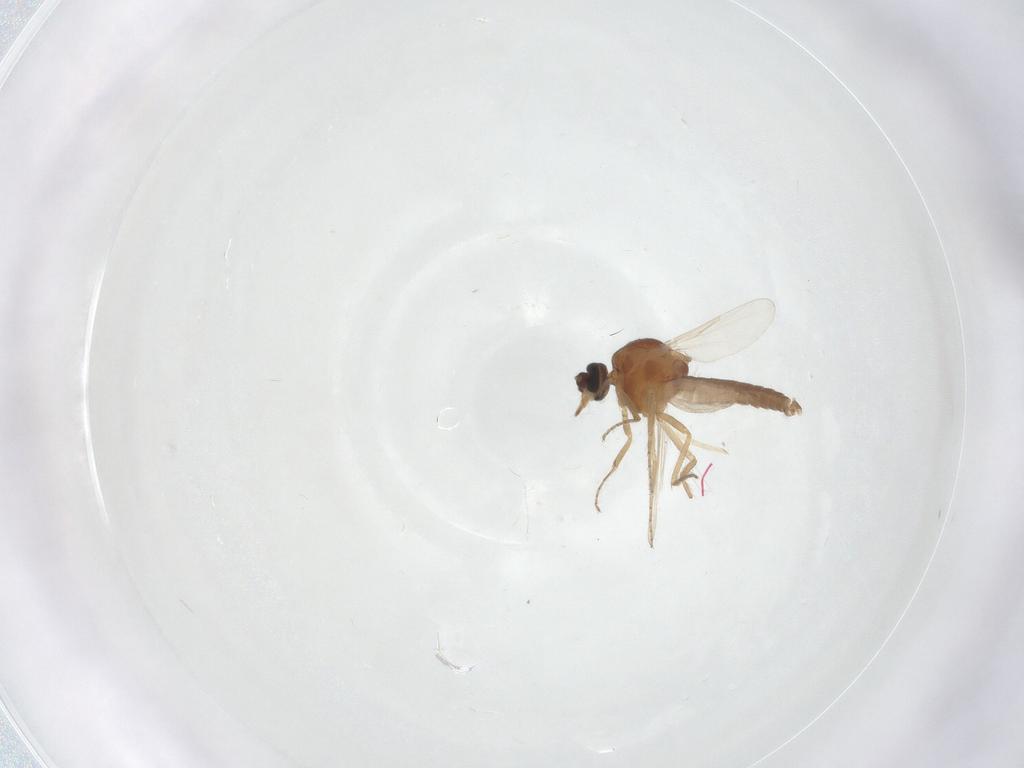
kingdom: Animalia
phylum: Arthropoda
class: Insecta
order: Diptera
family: Ceratopogonidae
